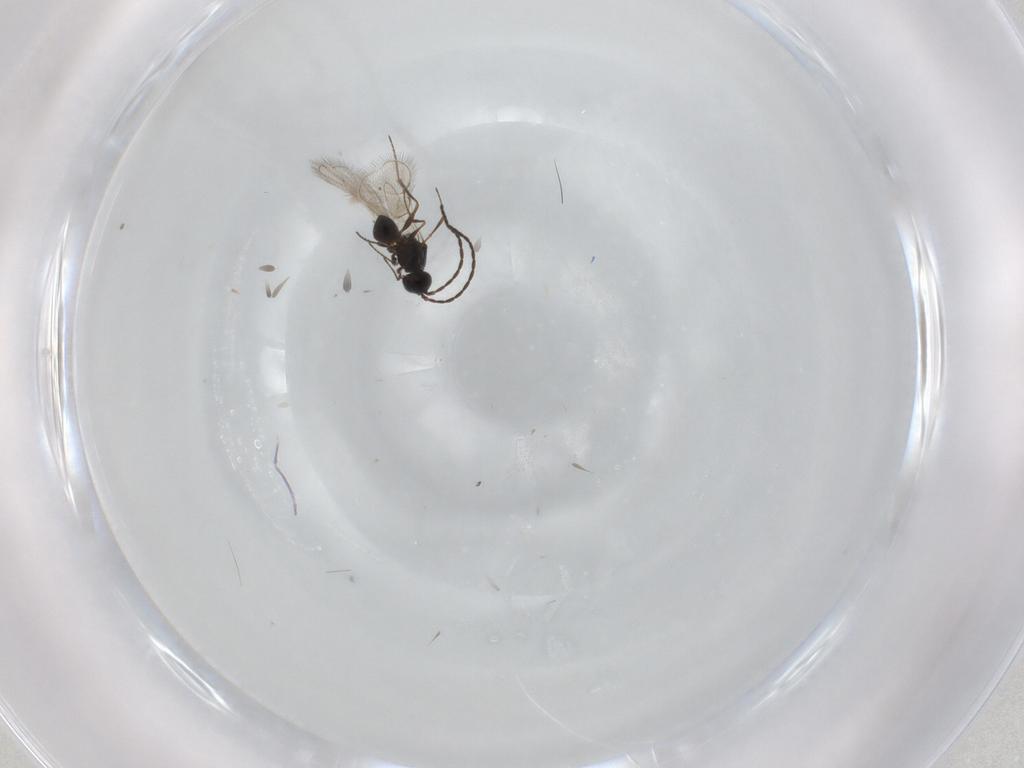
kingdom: Animalia
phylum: Arthropoda
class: Insecta
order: Hymenoptera
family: Figitidae
